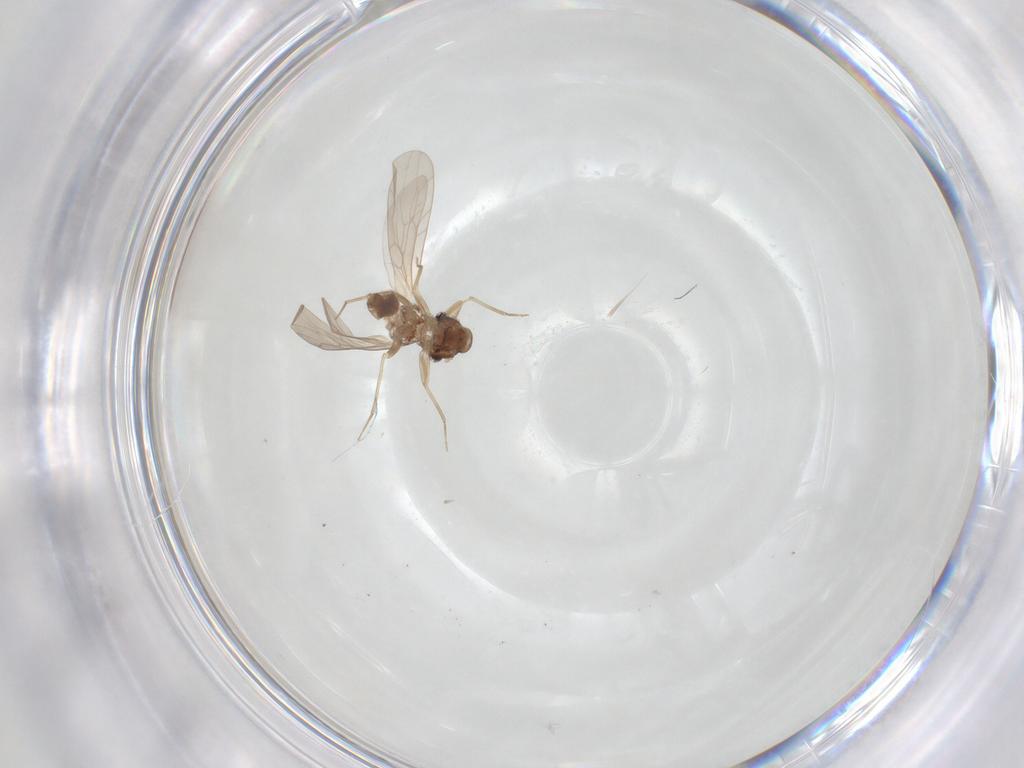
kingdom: Animalia
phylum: Arthropoda
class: Insecta
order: Psocodea
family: Lepidopsocidae
